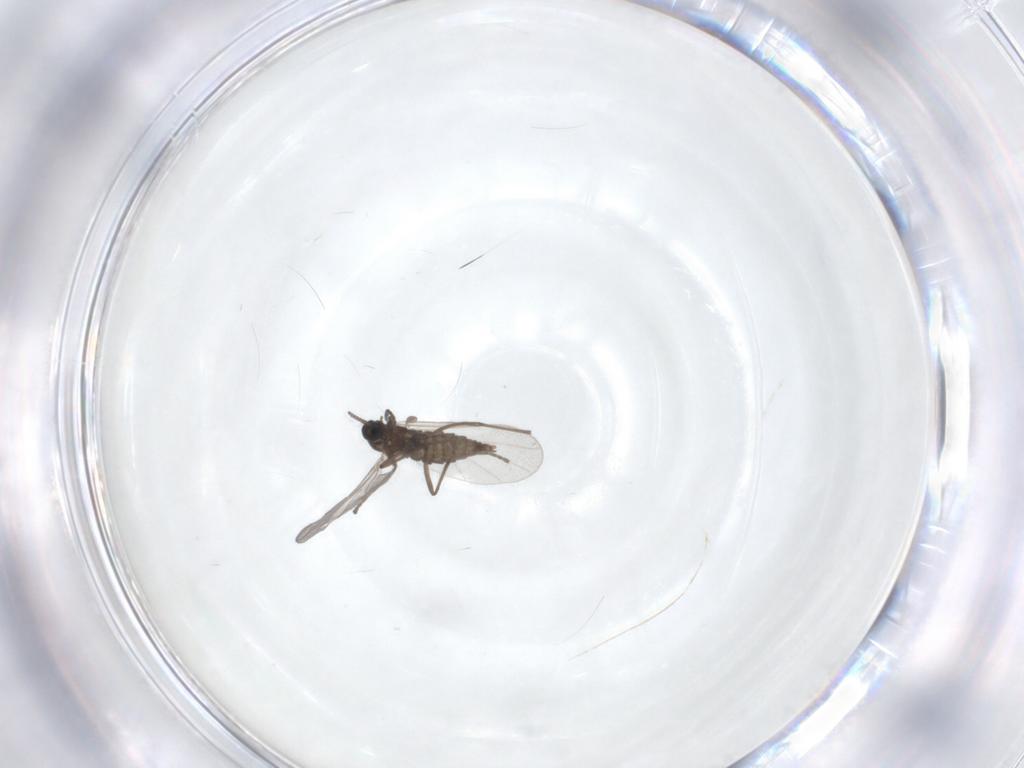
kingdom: Animalia
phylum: Arthropoda
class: Insecta
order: Diptera
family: Cecidomyiidae
